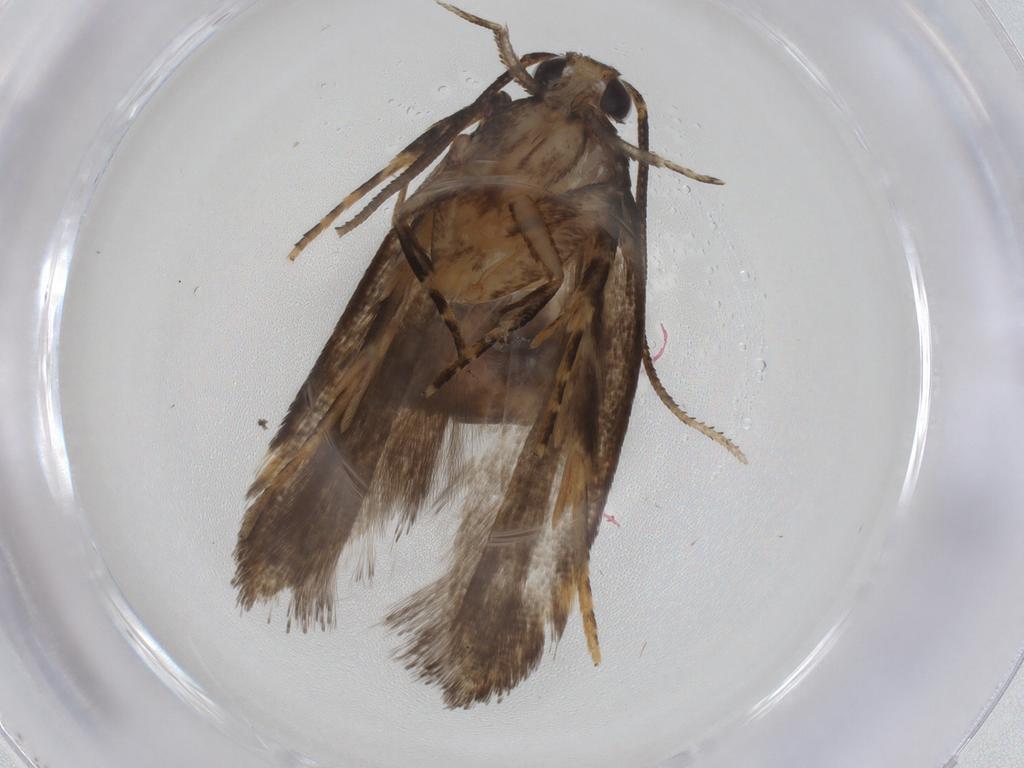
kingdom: Animalia
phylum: Arthropoda
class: Insecta
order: Lepidoptera
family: Gelechiidae
